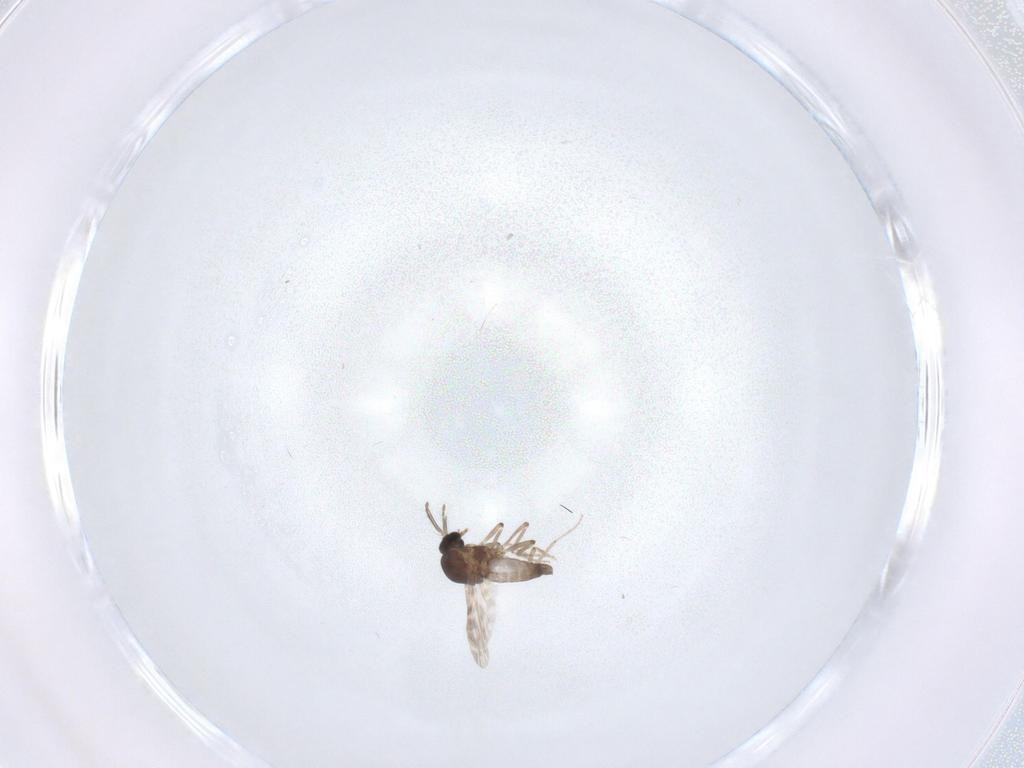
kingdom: Animalia
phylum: Arthropoda
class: Insecta
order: Diptera
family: Ceratopogonidae
